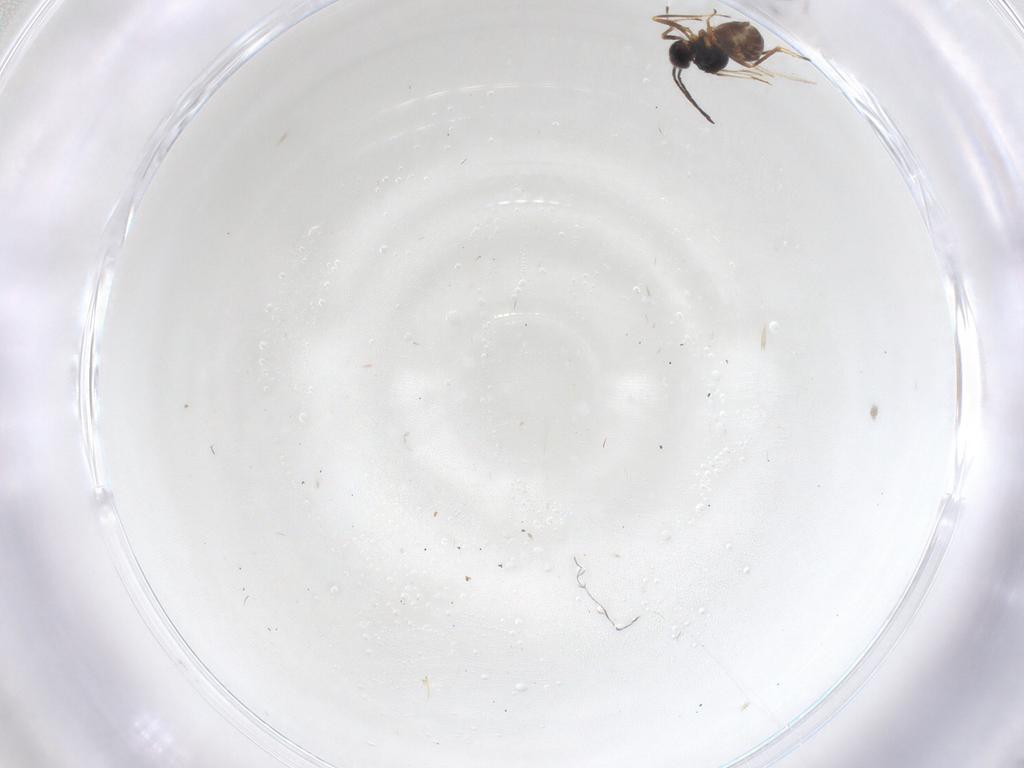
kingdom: Animalia
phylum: Arthropoda
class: Insecta
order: Hymenoptera
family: Mymaridae
